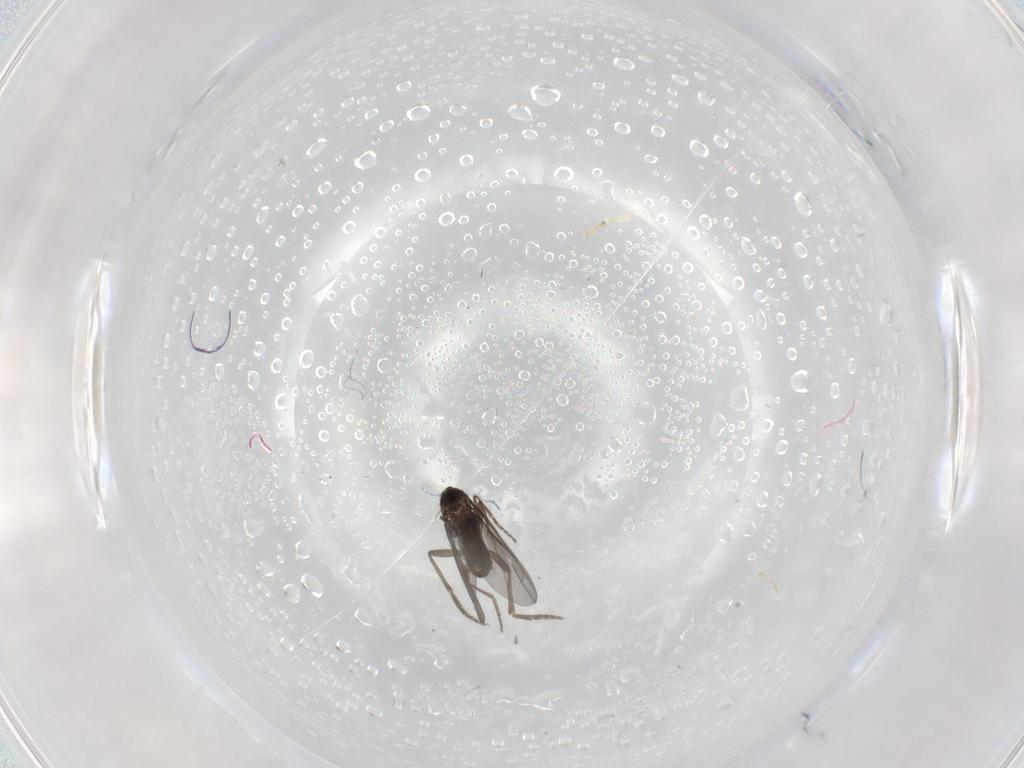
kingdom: Animalia
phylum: Arthropoda
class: Insecta
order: Diptera
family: Phoridae
